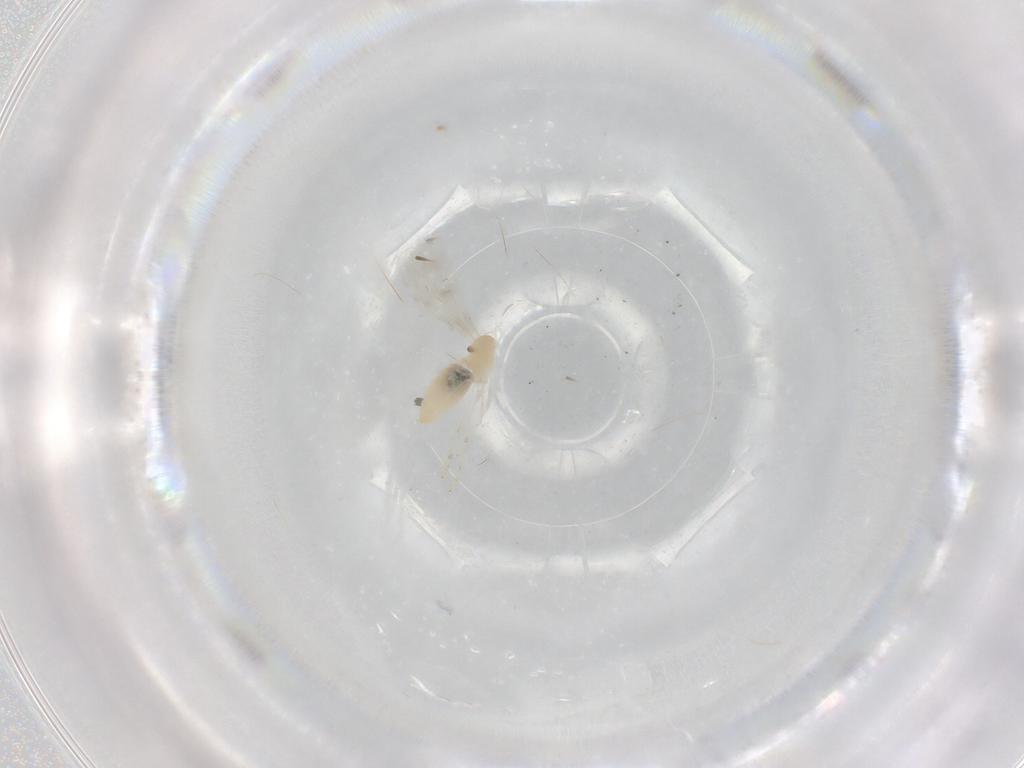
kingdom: Animalia
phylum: Arthropoda
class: Insecta
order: Diptera
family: Cecidomyiidae
